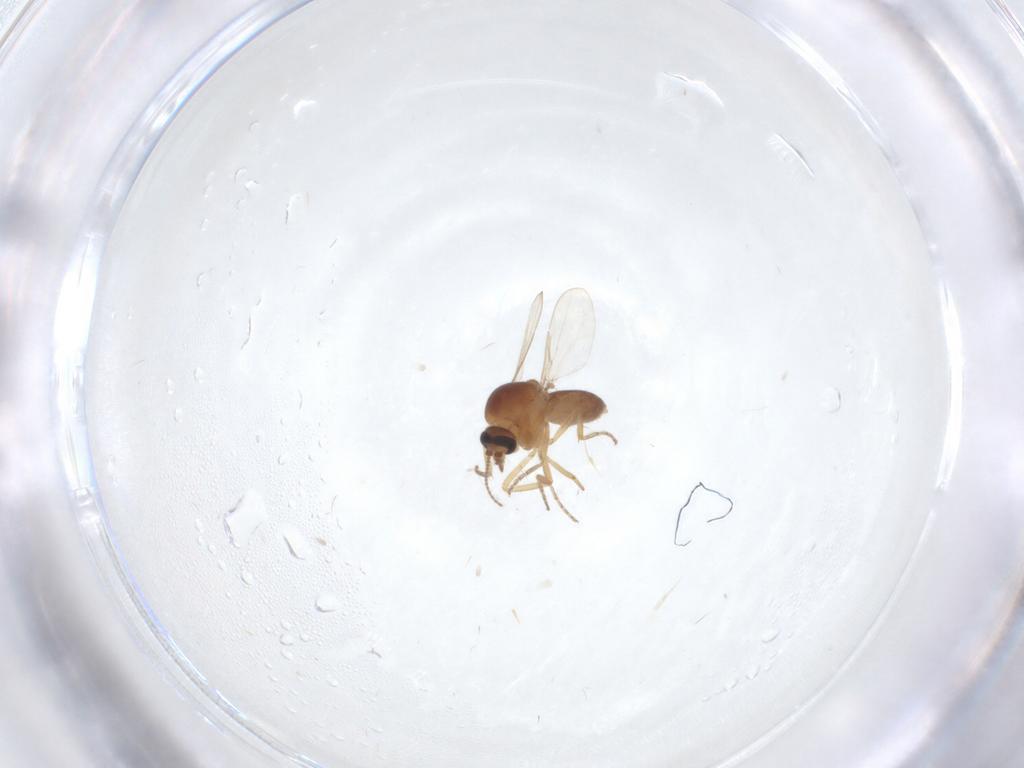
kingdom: Animalia
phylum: Arthropoda
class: Insecta
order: Diptera
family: Ceratopogonidae
